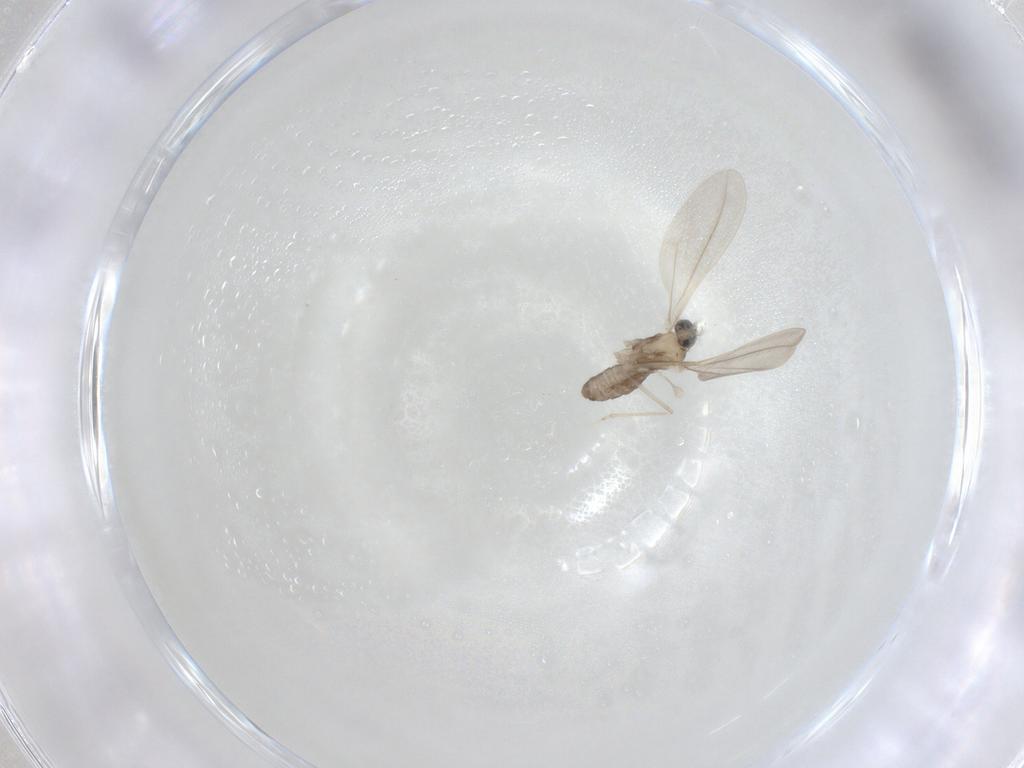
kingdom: Animalia
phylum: Arthropoda
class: Insecta
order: Diptera
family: Cecidomyiidae
